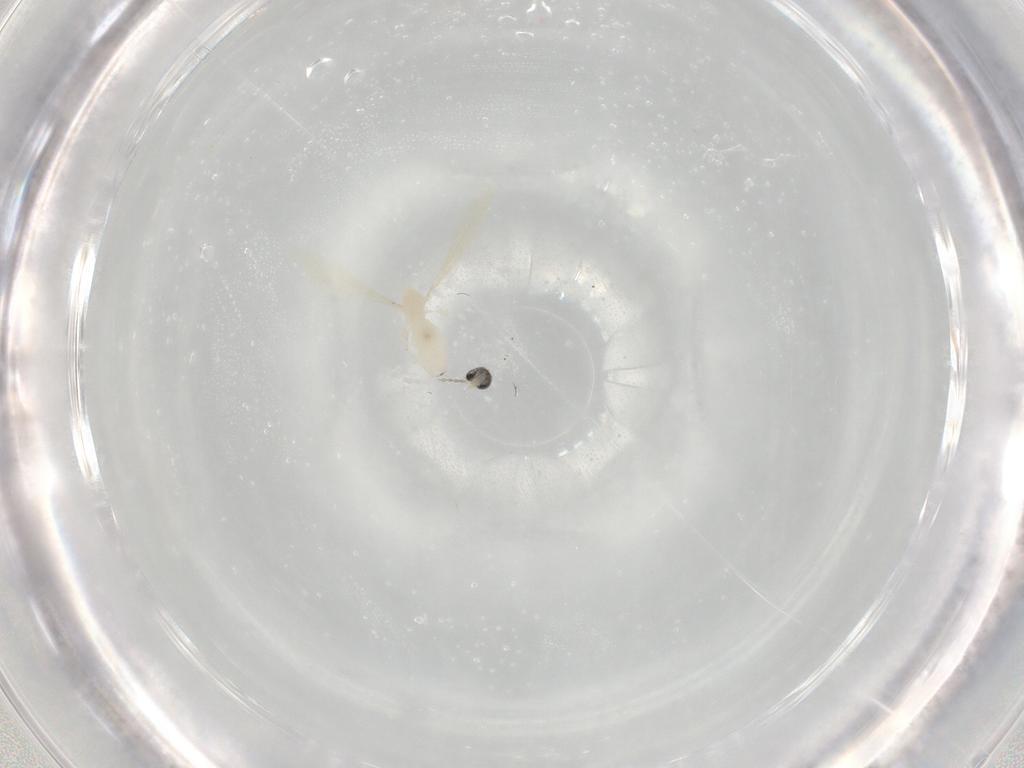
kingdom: Animalia
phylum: Arthropoda
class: Insecta
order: Diptera
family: Cecidomyiidae
